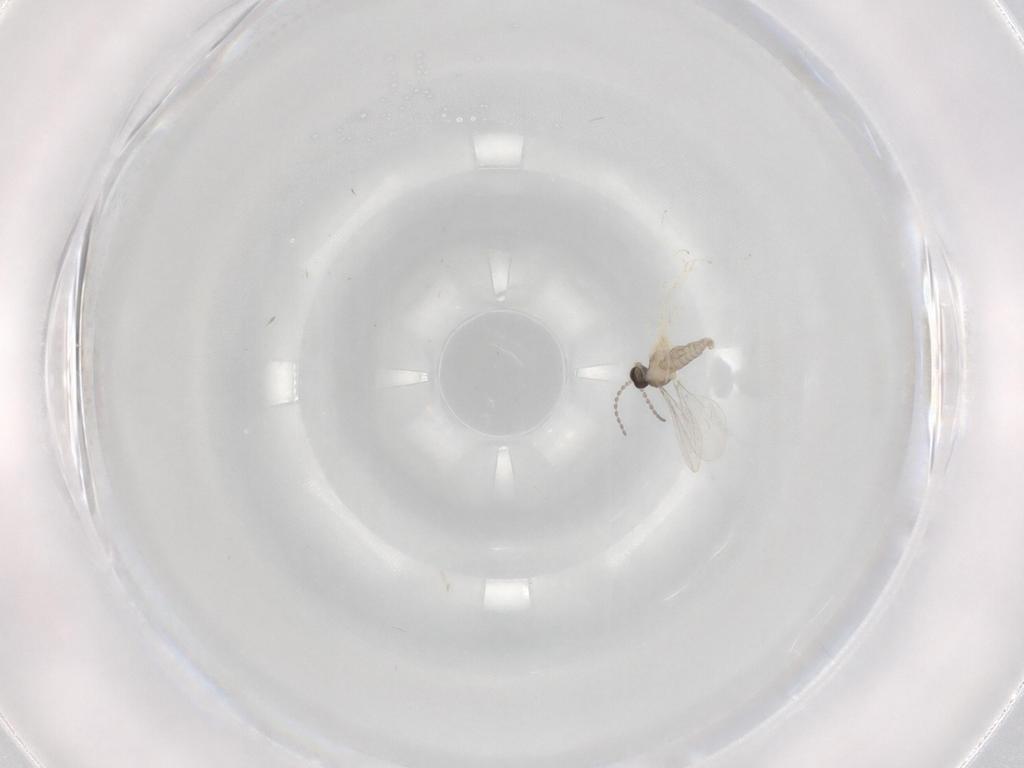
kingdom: Animalia
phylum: Arthropoda
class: Insecta
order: Diptera
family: Cecidomyiidae
